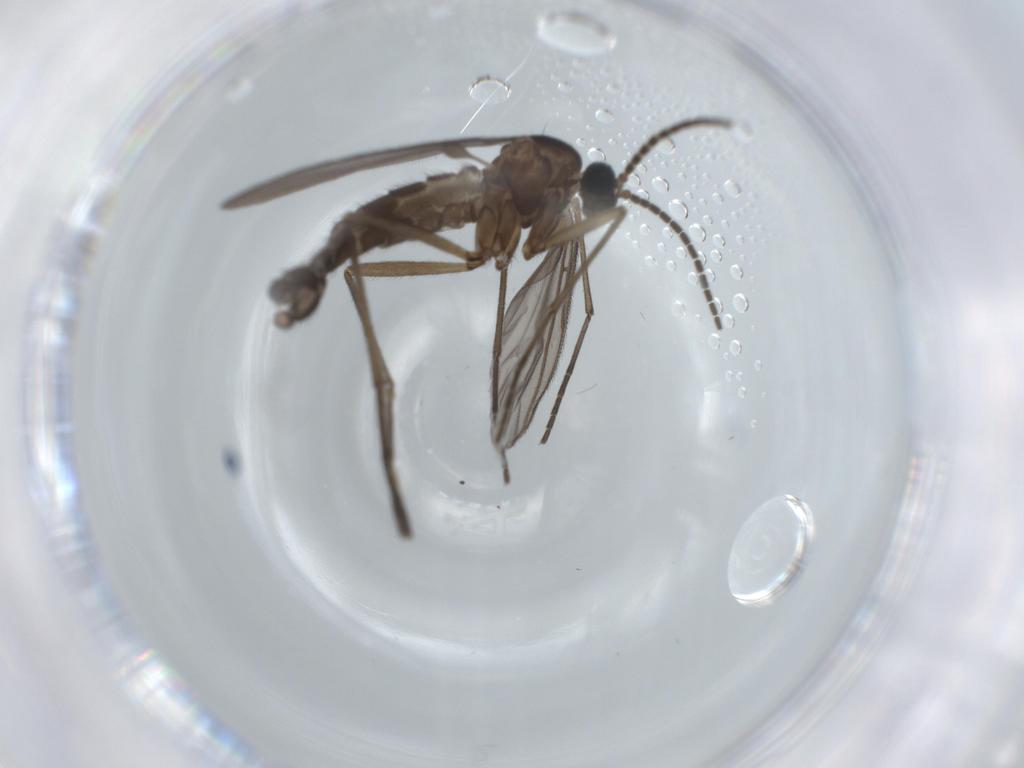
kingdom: Animalia
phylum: Arthropoda
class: Insecta
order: Diptera
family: Sciaridae
